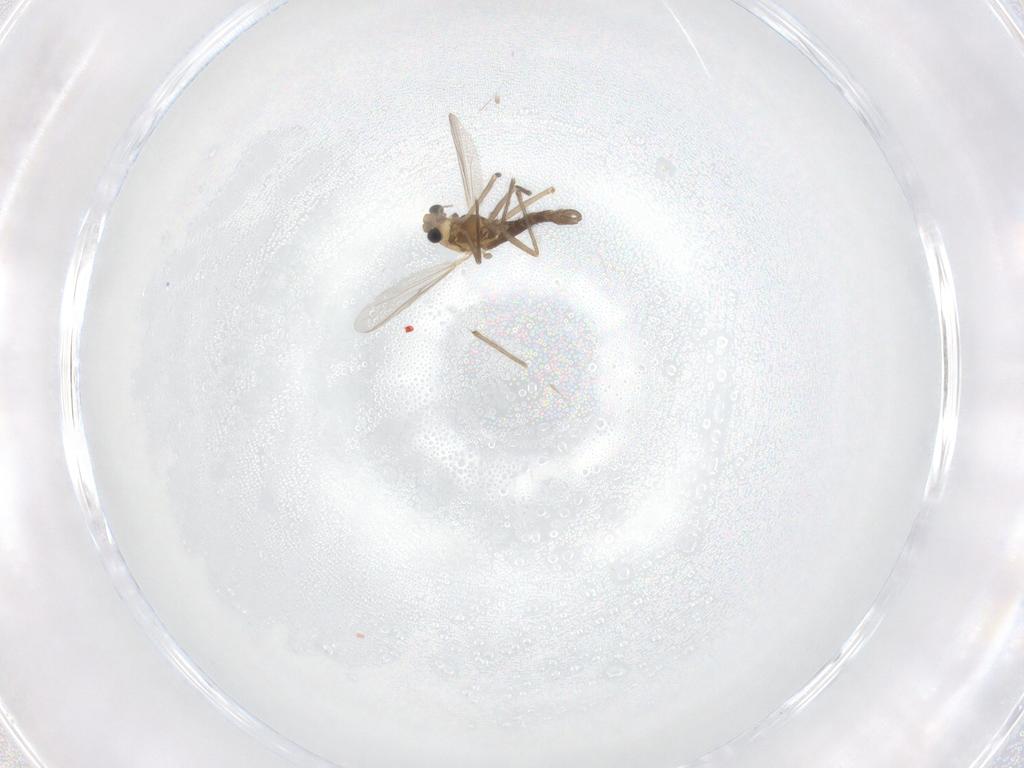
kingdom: Animalia
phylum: Arthropoda
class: Insecta
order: Diptera
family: Chironomidae
